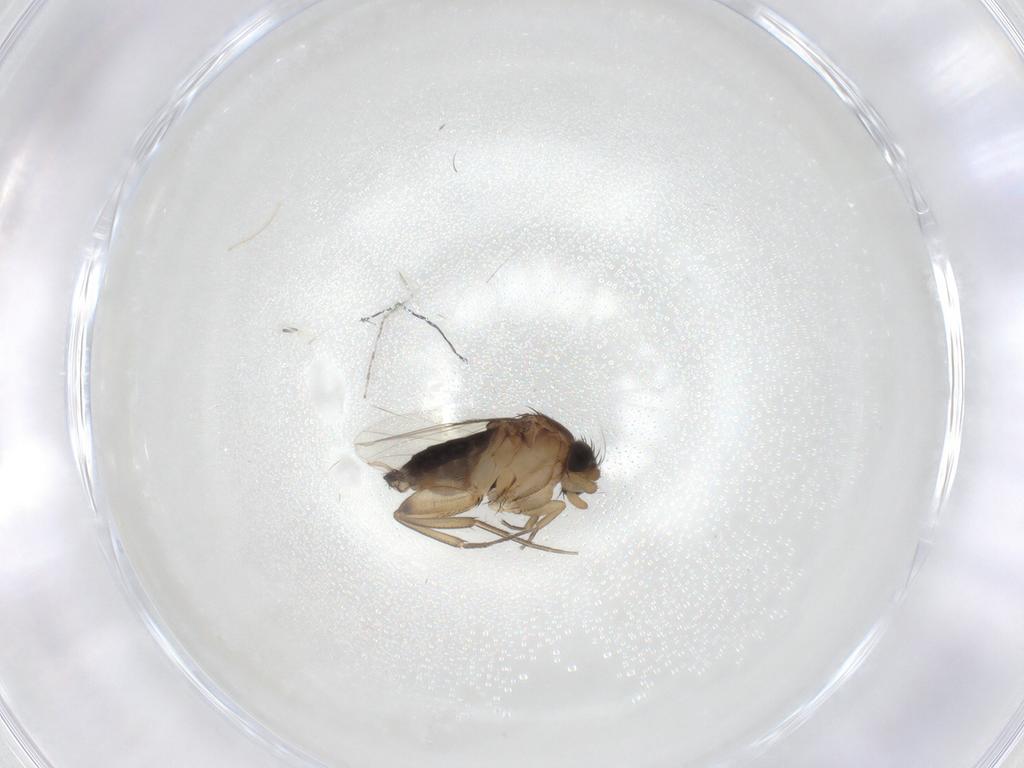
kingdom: Animalia
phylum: Arthropoda
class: Insecta
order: Diptera
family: Phoridae
